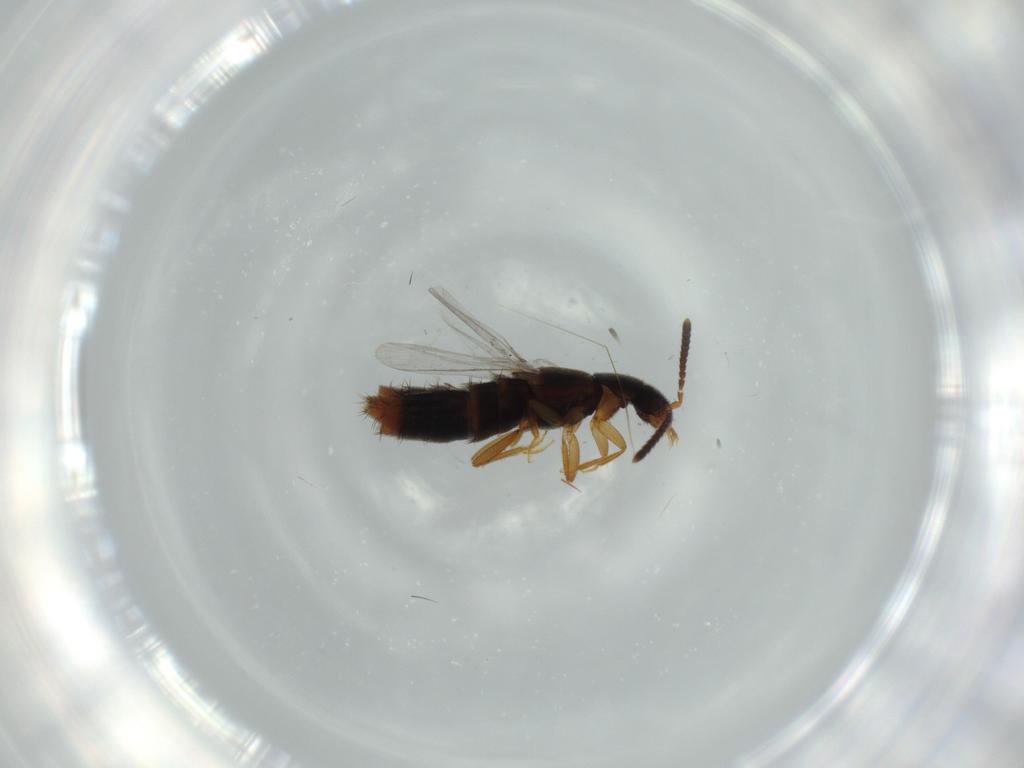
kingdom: Animalia
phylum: Arthropoda
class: Insecta
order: Coleoptera
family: Staphylinidae
